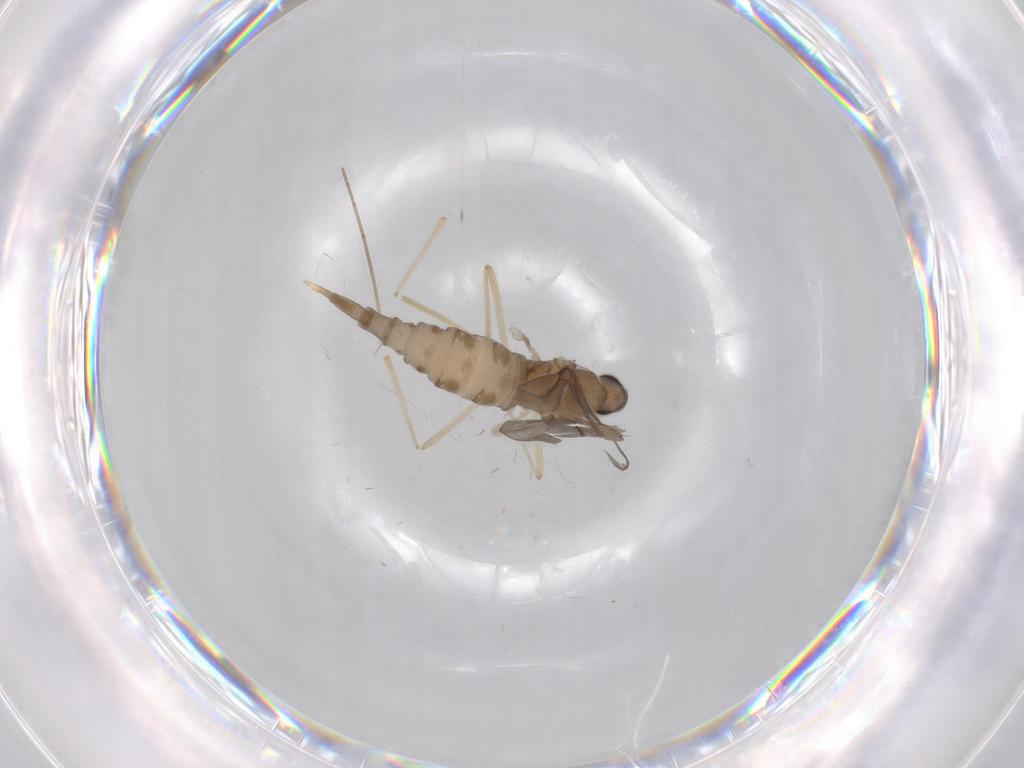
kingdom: Animalia
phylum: Arthropoda
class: Insecta
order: Diptera
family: Cecidomyiidae
